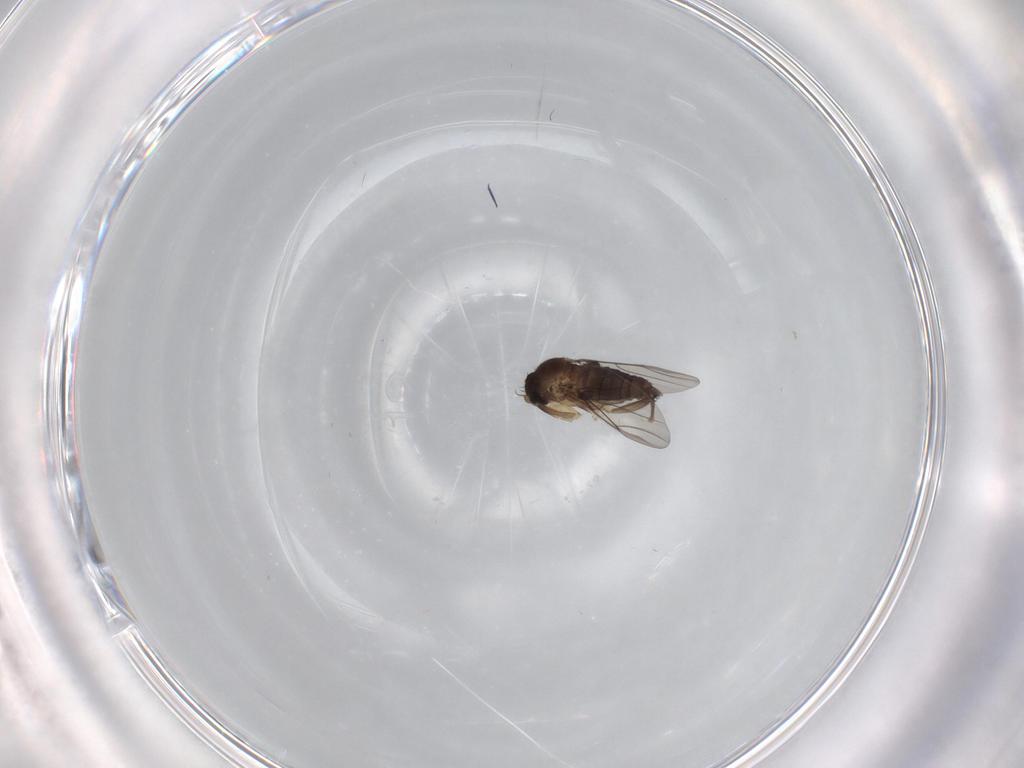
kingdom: Animalia
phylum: Arthropoda
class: Insecta
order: Diptera
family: Phoridae
